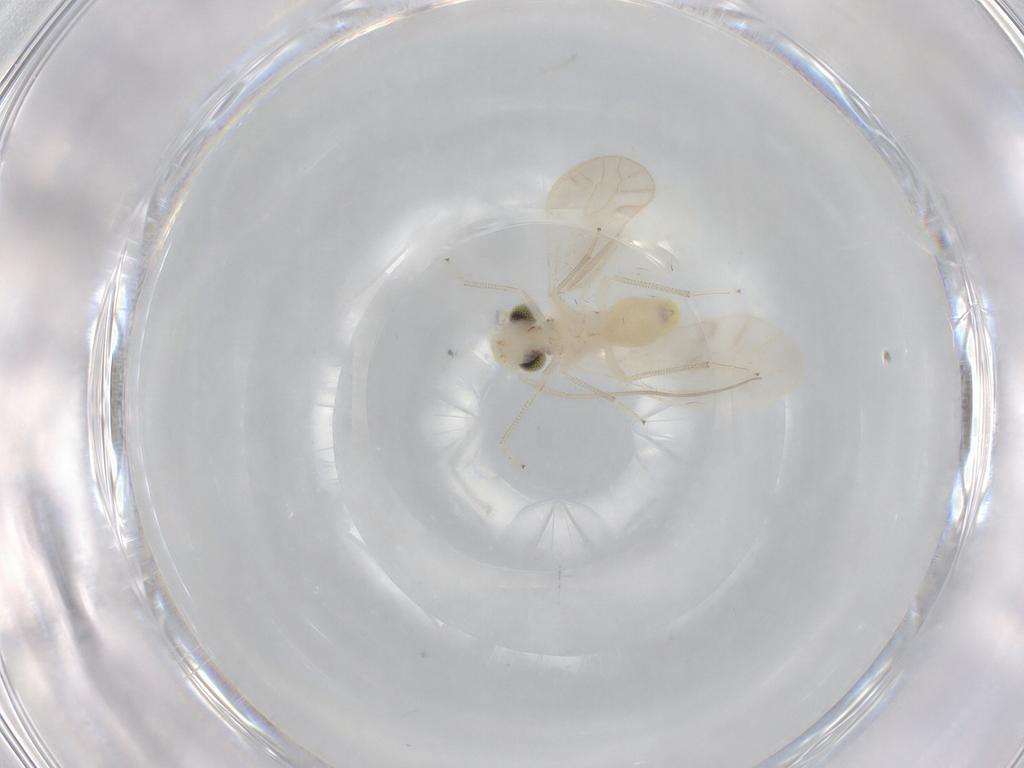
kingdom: Animalia
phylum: Arthropoda
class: Insecta
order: Psocodea
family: Caeciliusidae
